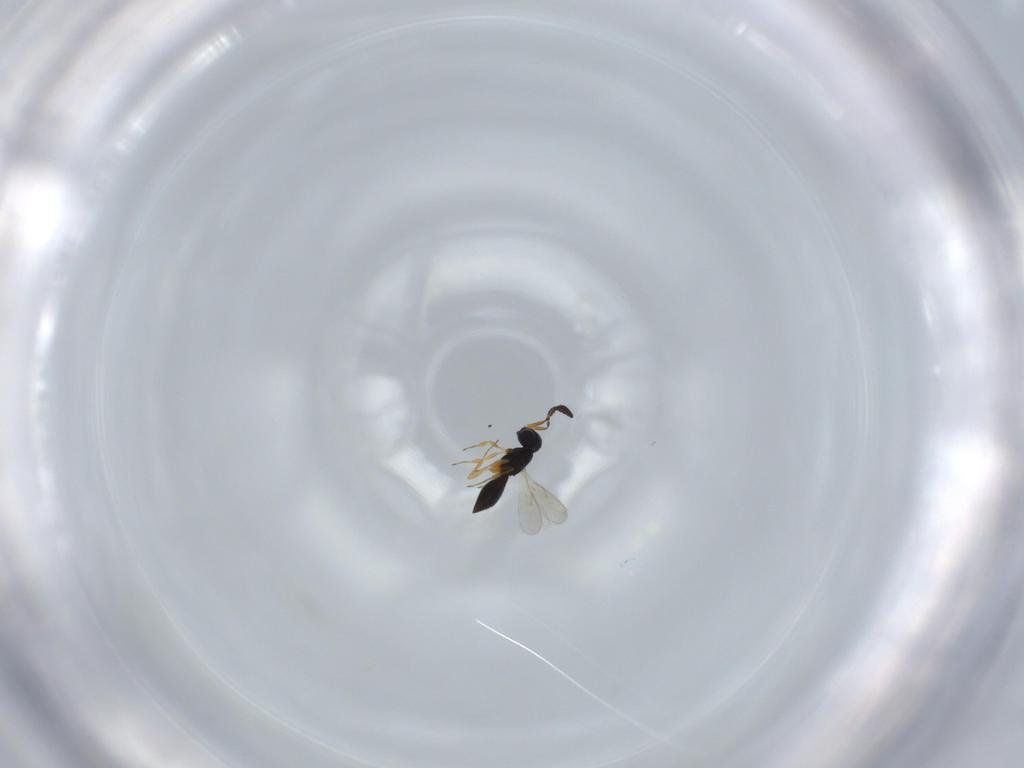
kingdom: Animalia
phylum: Arthropoda
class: Insecta
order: Hymenoptera
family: Scelionidae
